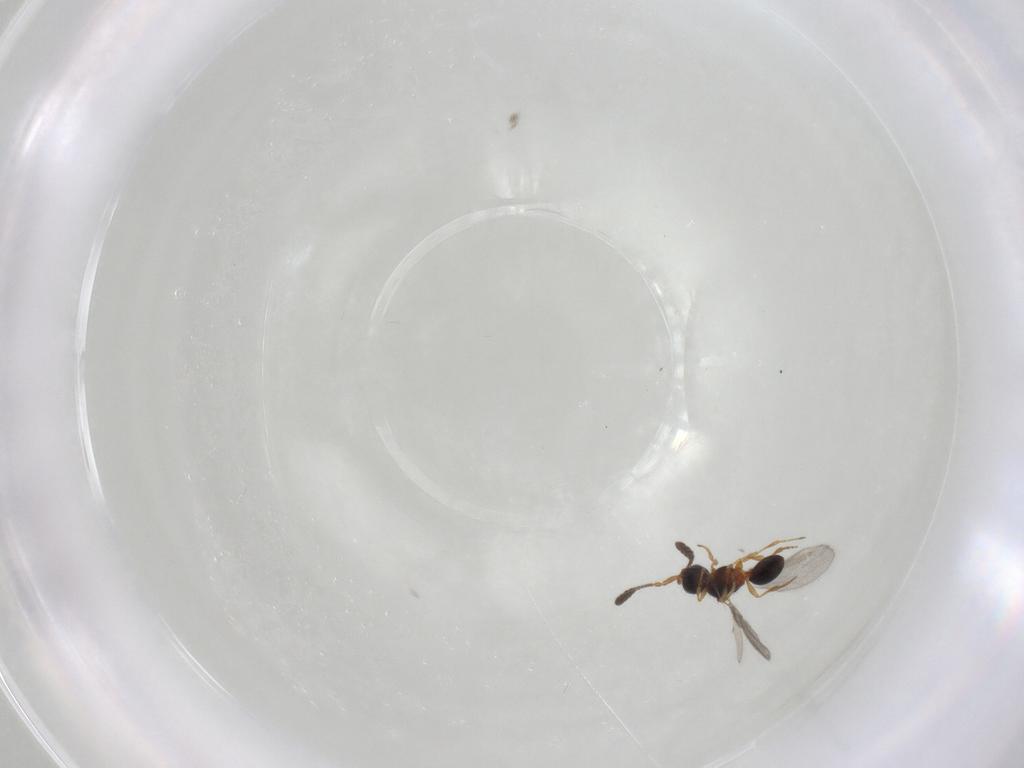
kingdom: Animalia
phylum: Arthropoda
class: Insecta
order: Hymenoptera
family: Diapriidae
